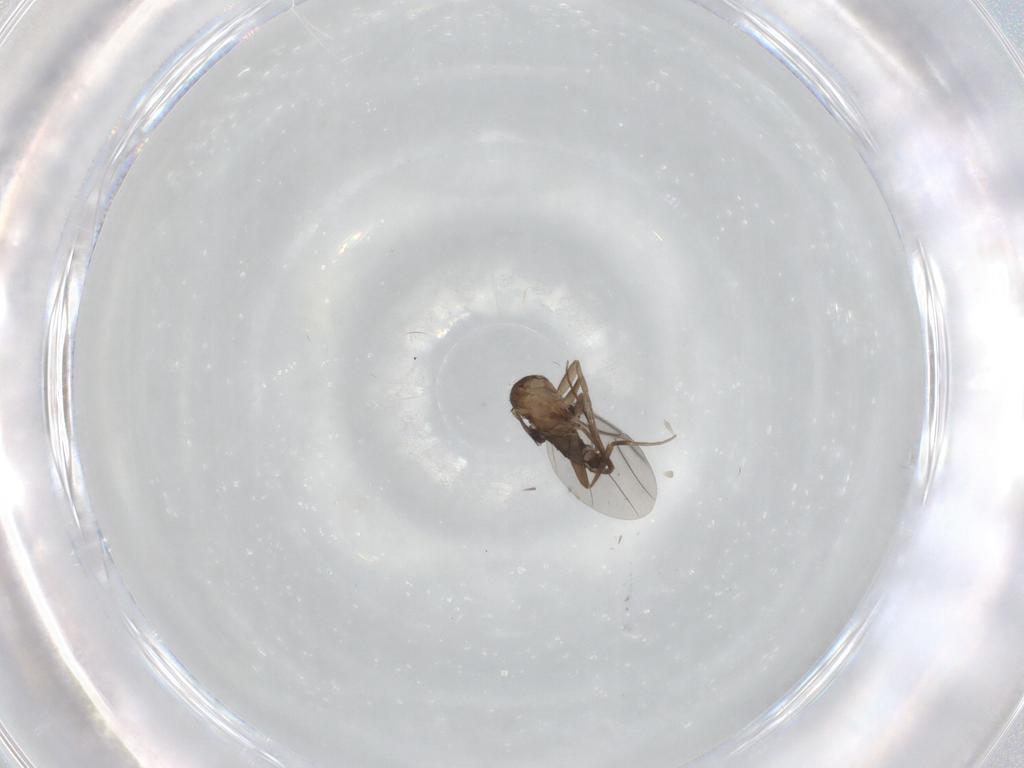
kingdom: Animalia
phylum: Arthropoda
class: Insecta
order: Diptera
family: Phoridae
